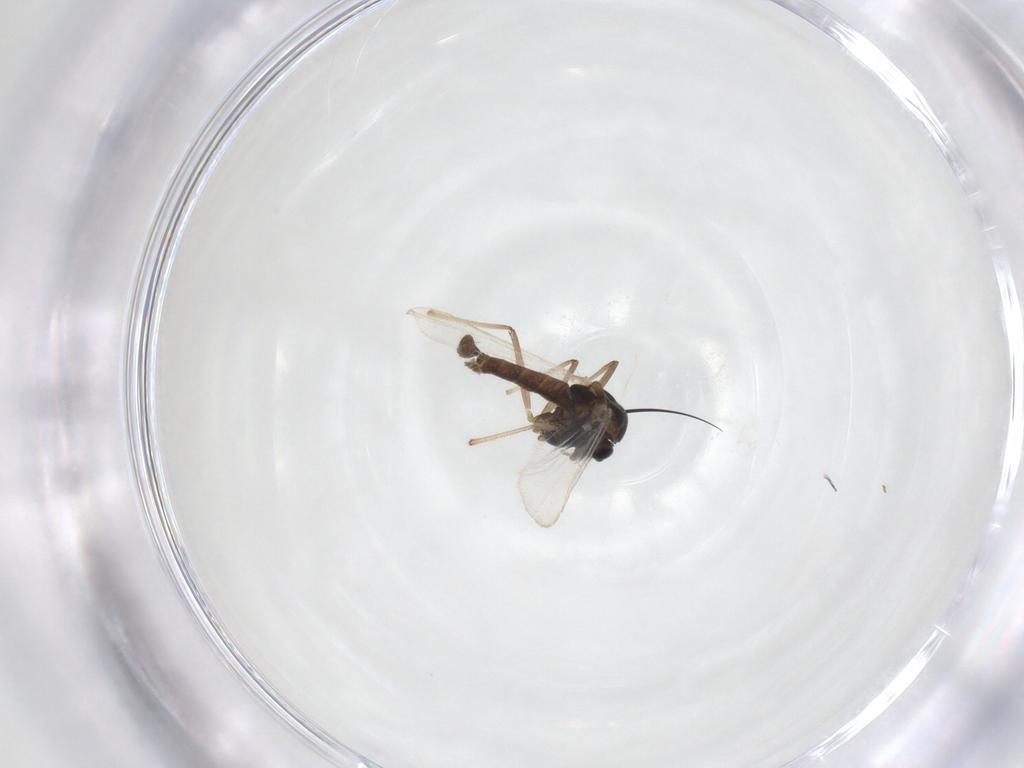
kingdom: Animalia
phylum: Arthropoda
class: Insecta
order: Diptera
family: Chironomidae
